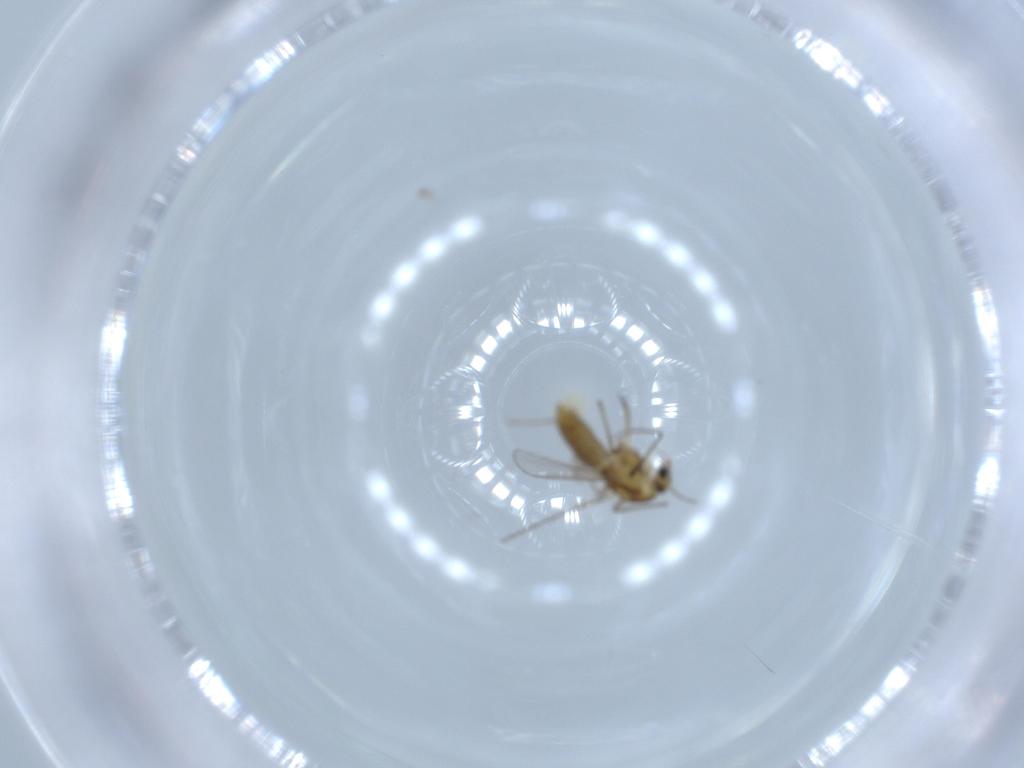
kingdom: Animalia
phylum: Arthropoda
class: Insecta
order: Diptera
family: Chironomidae
